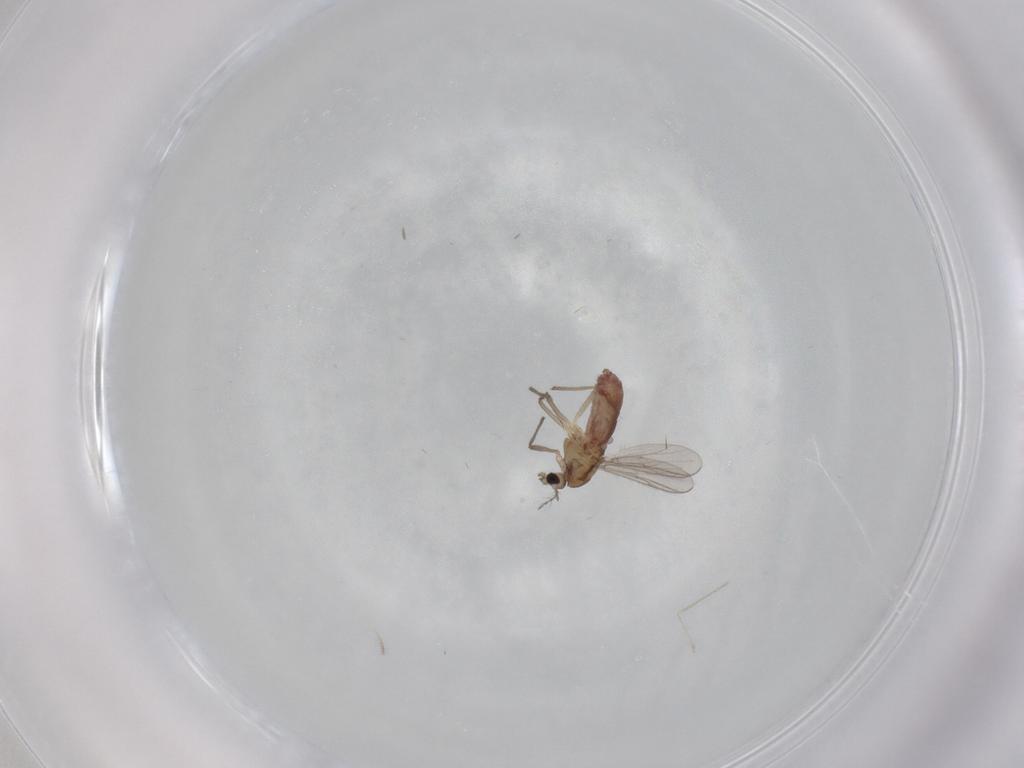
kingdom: Animalia
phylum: Arthropoda
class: Insecta
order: Diptera
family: Chironomidae
